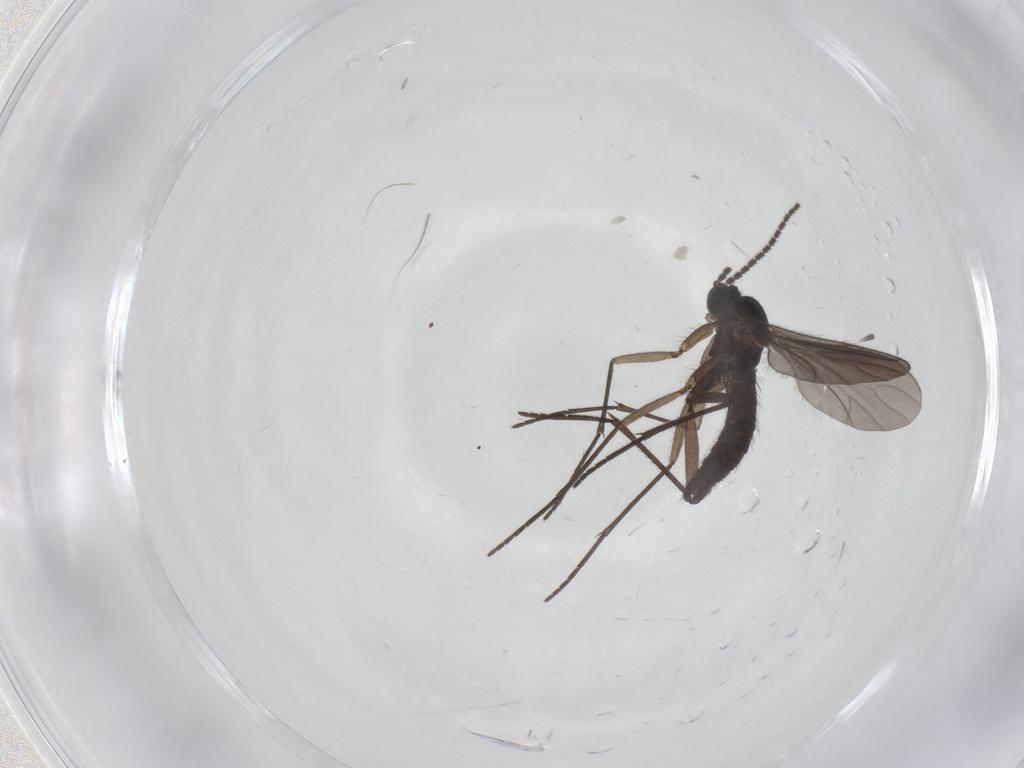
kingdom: Animalia
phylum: Arthropoda
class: Insecta
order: Diptera
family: Sciaridae
